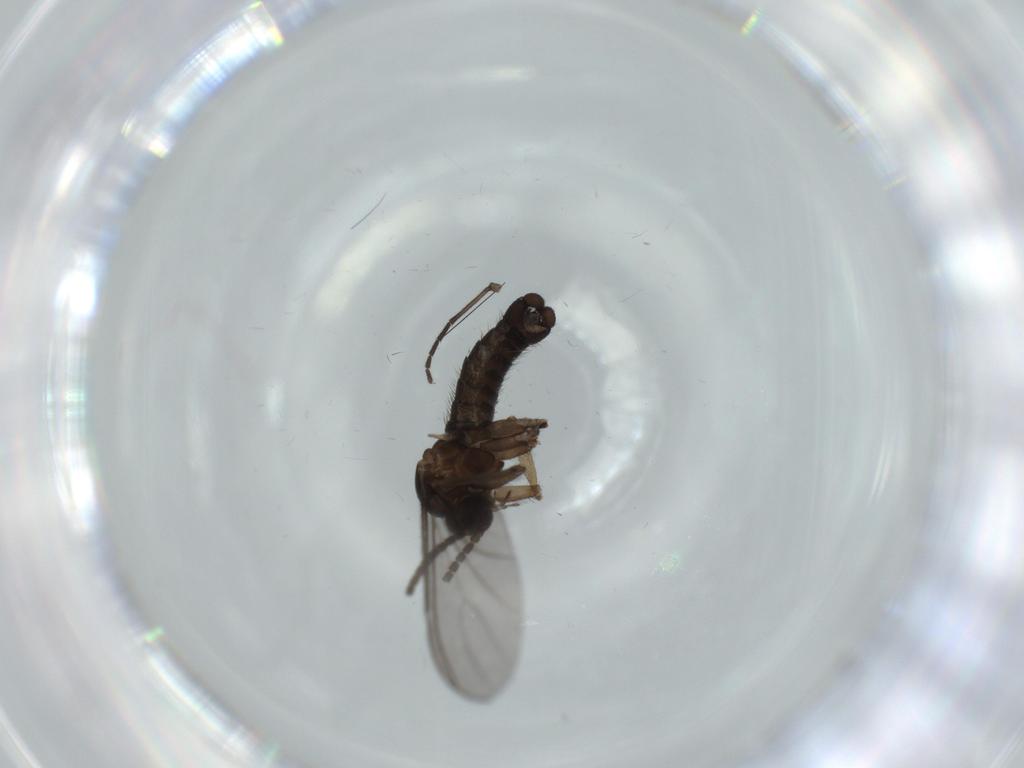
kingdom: Animalia
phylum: Arthropoda
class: Insecta
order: Diptera
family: Sciaridae
